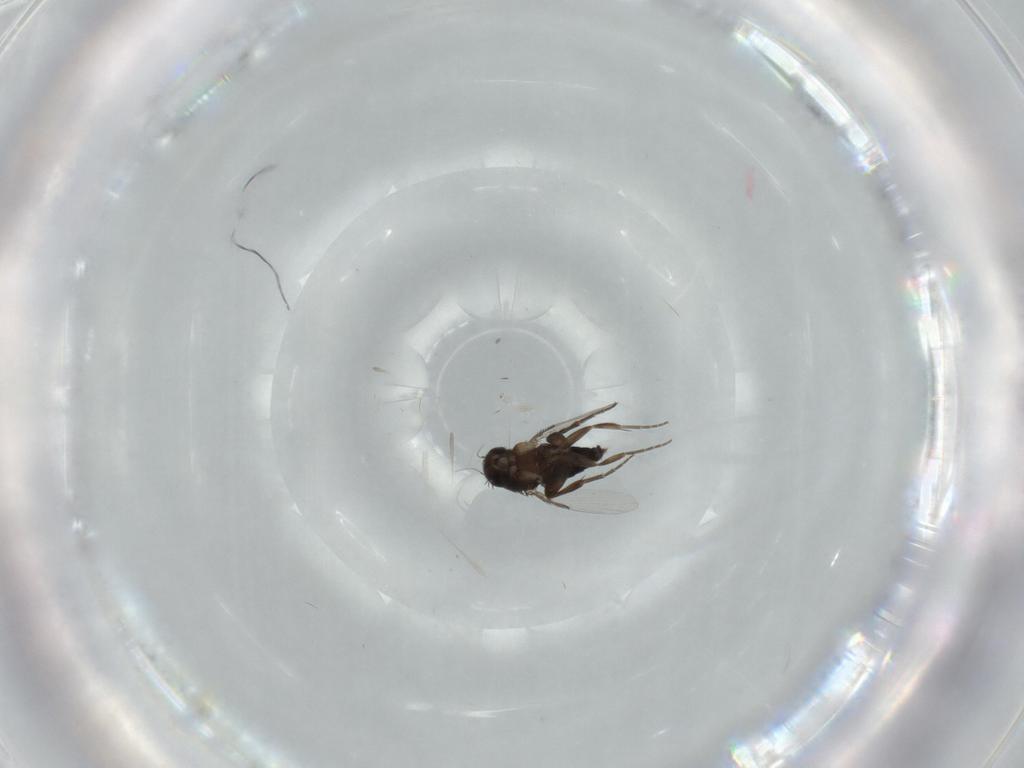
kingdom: Animalia
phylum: Arthropoda
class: Insecta
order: Diptera
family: Phoridae
